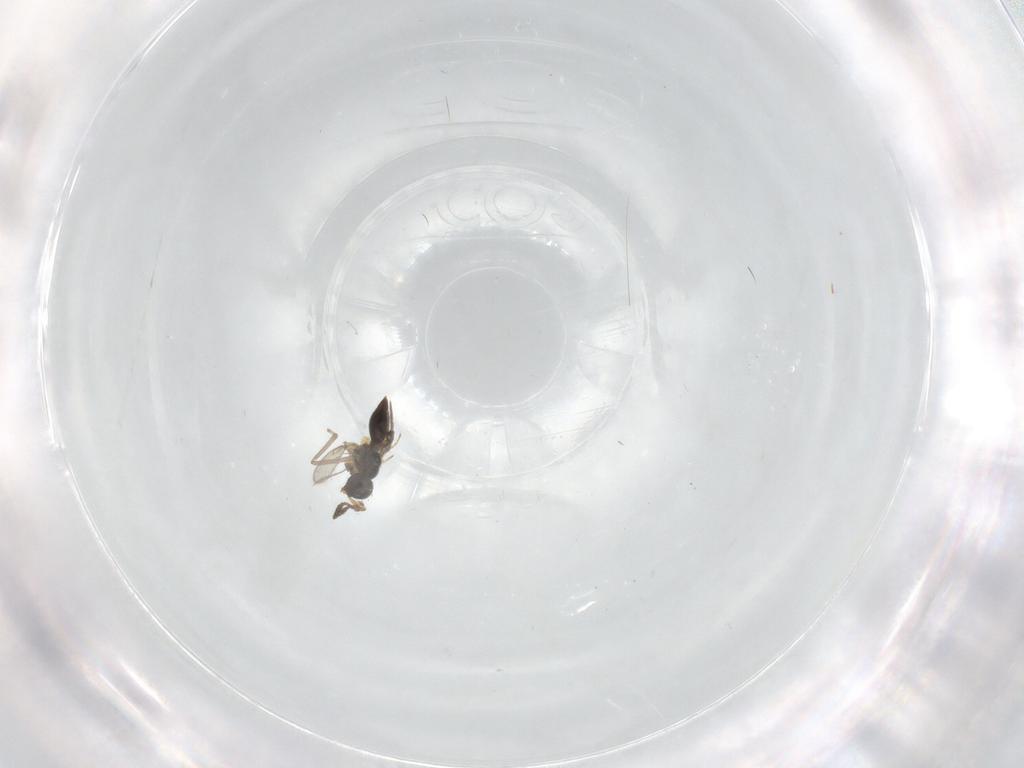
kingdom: Animalia
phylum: Arthropoda
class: Insecta
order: Hymenoptera
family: Scelionidae
